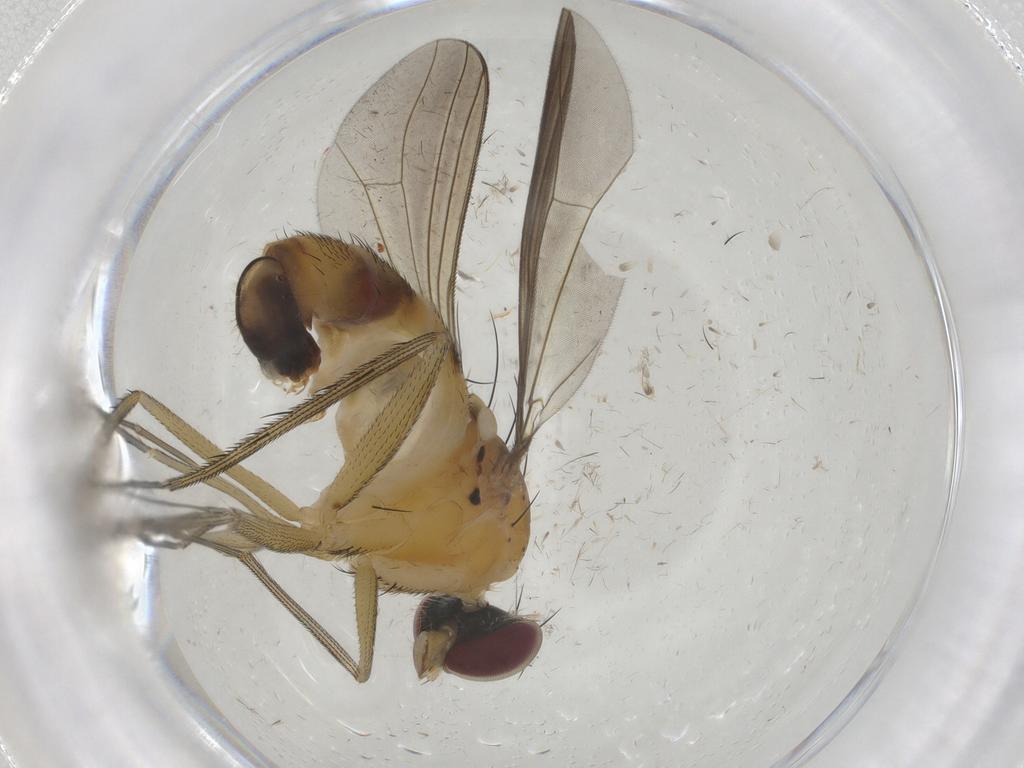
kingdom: Animalia
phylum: Arthropoda
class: Insecta
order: Diptera
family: Dolichopodidae
